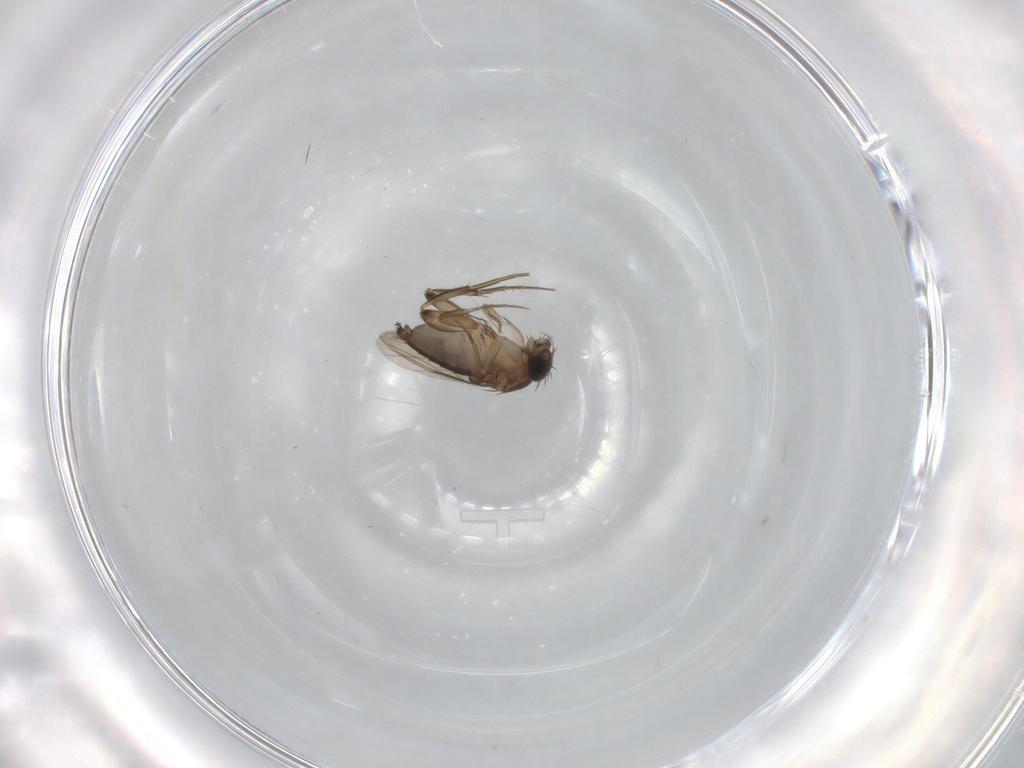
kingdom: Animalia
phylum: Arthropoda
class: Insecta
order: Diptera
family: Phoridae
